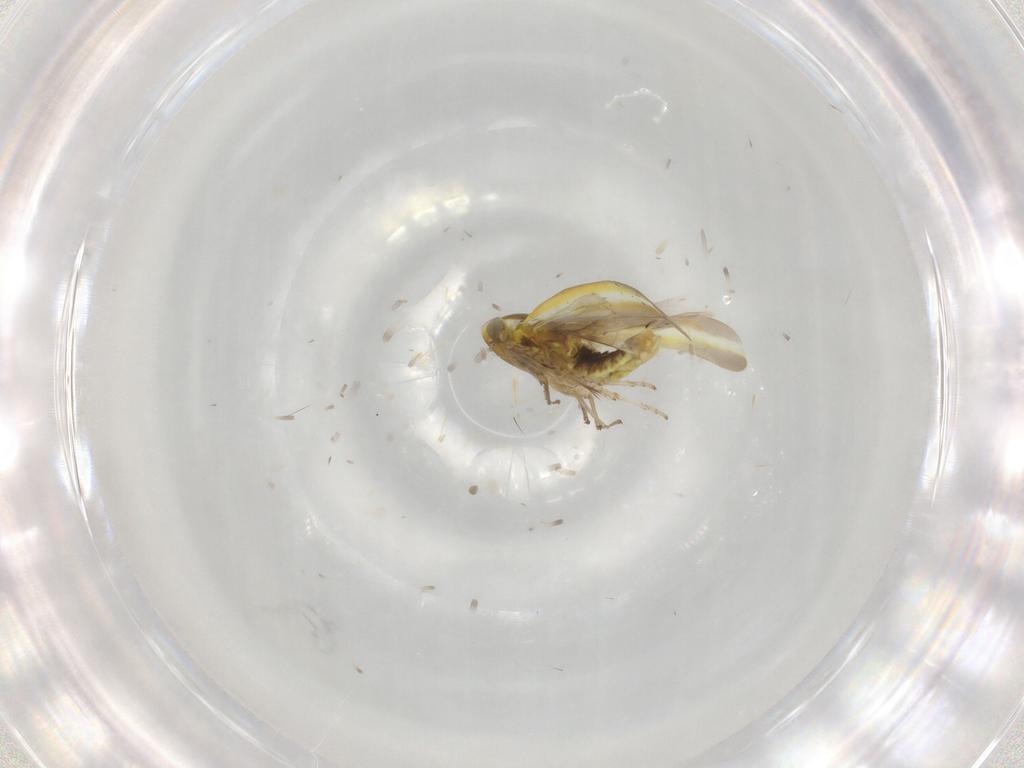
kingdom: Animalia
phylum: Arthropoda
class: Insecta
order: Hemiptera
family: Cicadellidae
